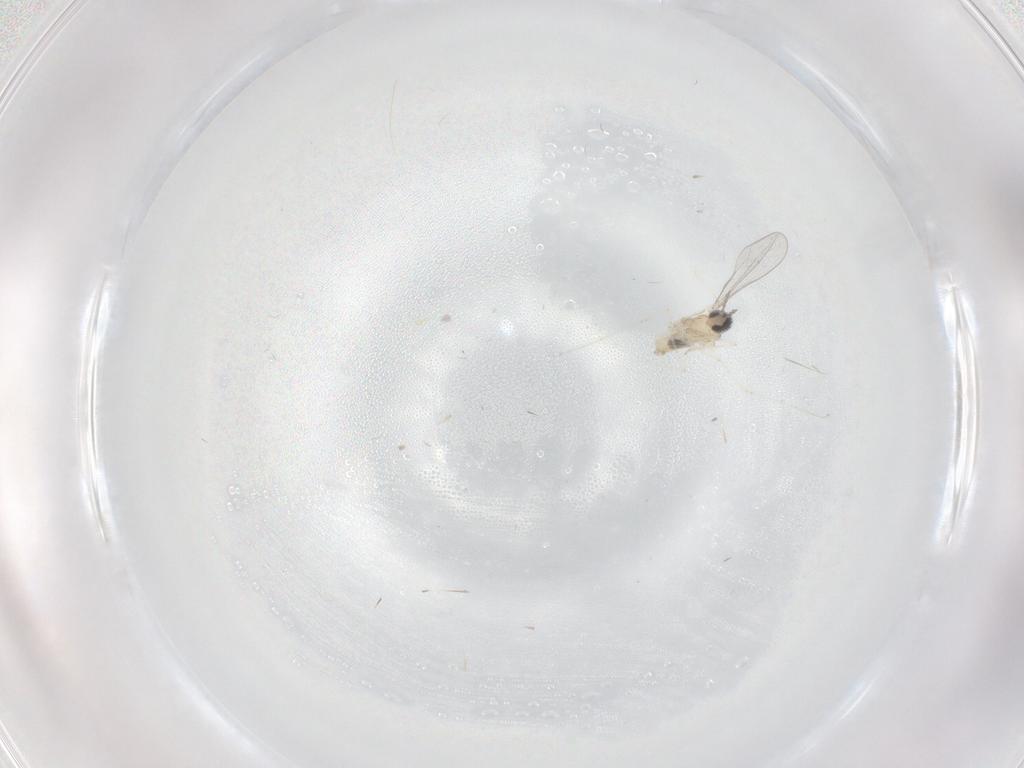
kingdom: Animalia
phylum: Arthropoda
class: Insecta
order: Diptera
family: Cecidomyiidae
